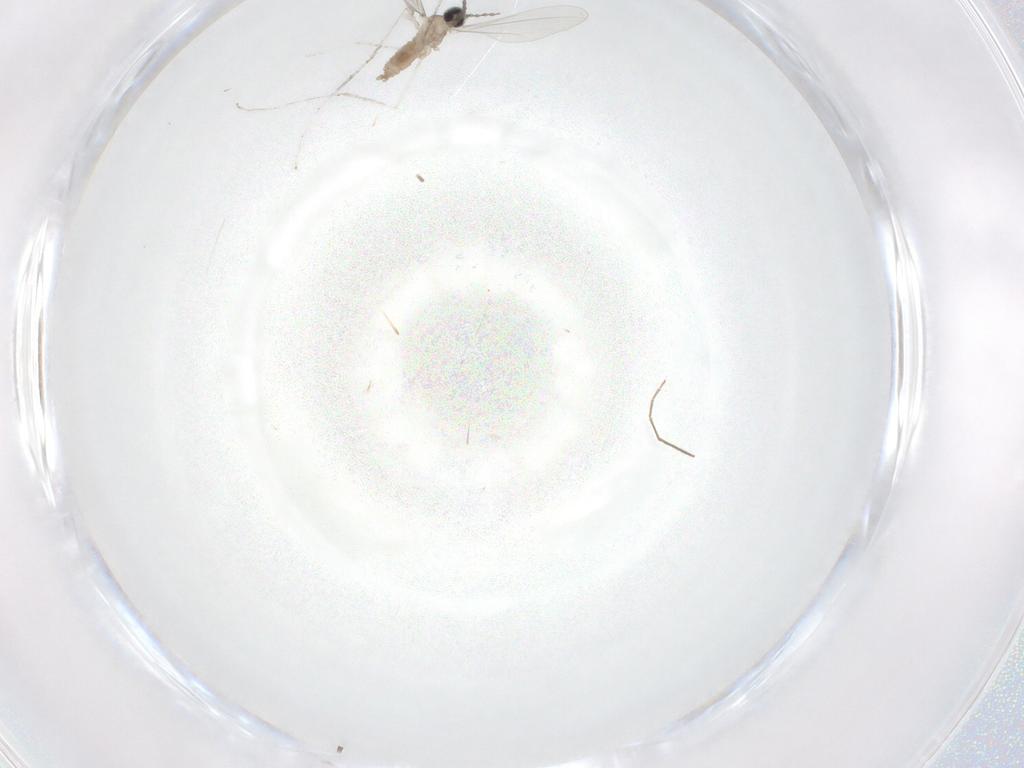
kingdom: Animalia
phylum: Arthropoda
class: Insecta
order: Diptera
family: Cecidomyiidae
